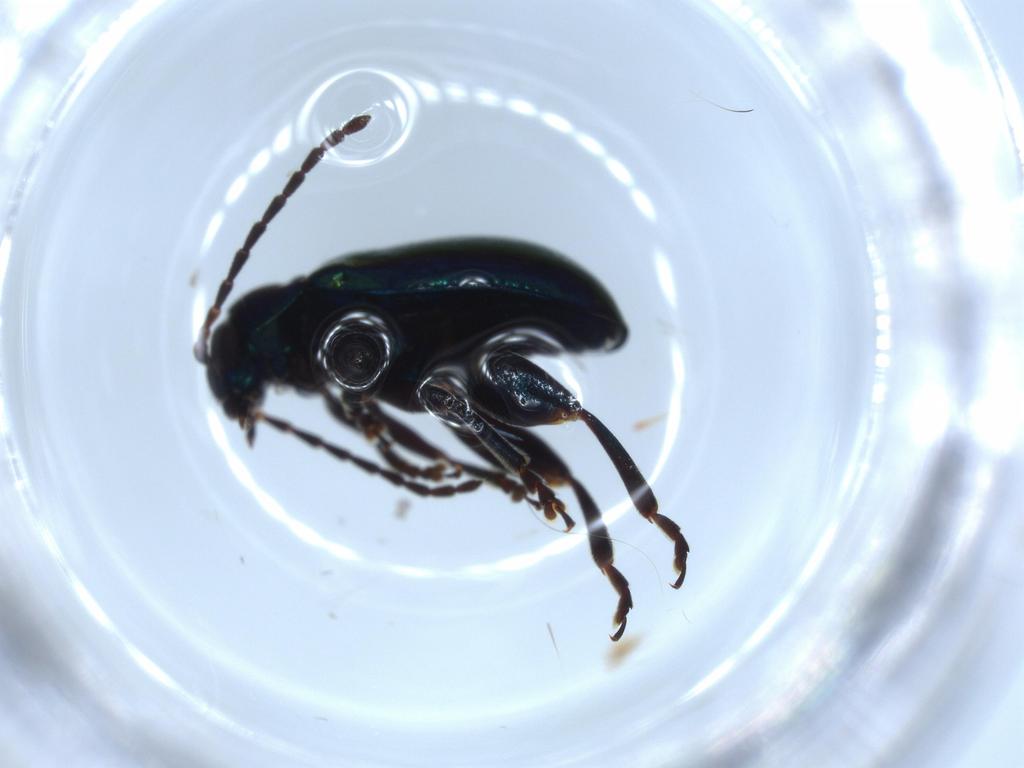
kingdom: Animalia
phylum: Arthropoda
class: Insecta
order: Coleoptera
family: Chrysomelidae
